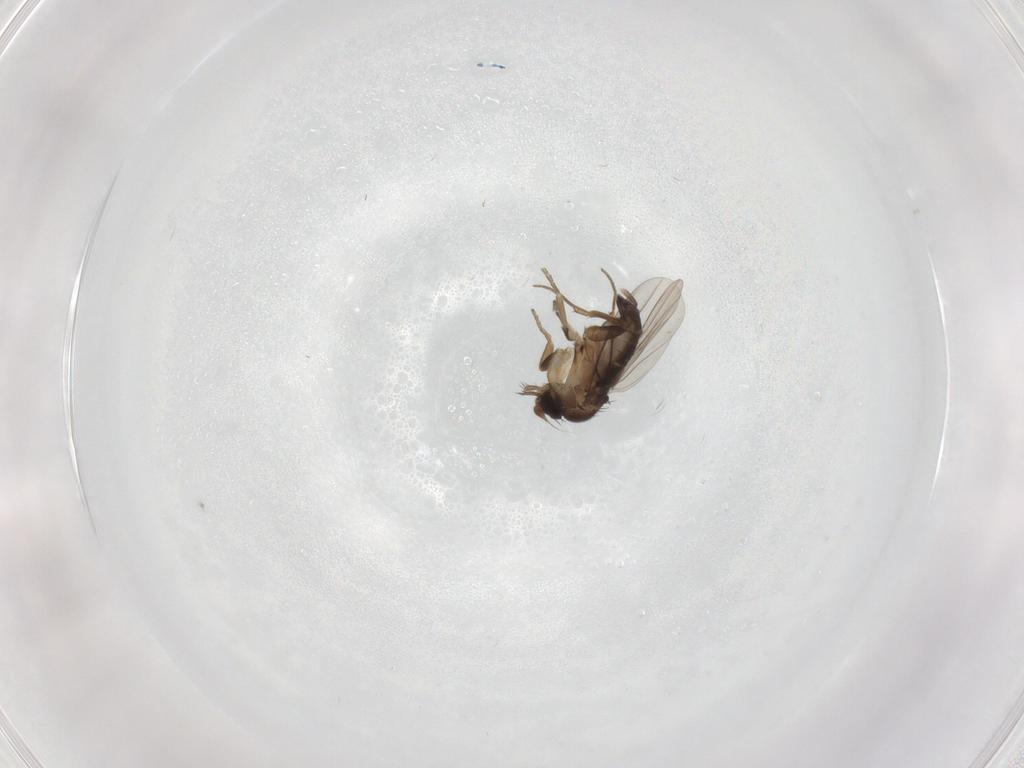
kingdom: Animalia
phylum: Arthropoda
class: Insecta
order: Diptera
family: Phoridae
